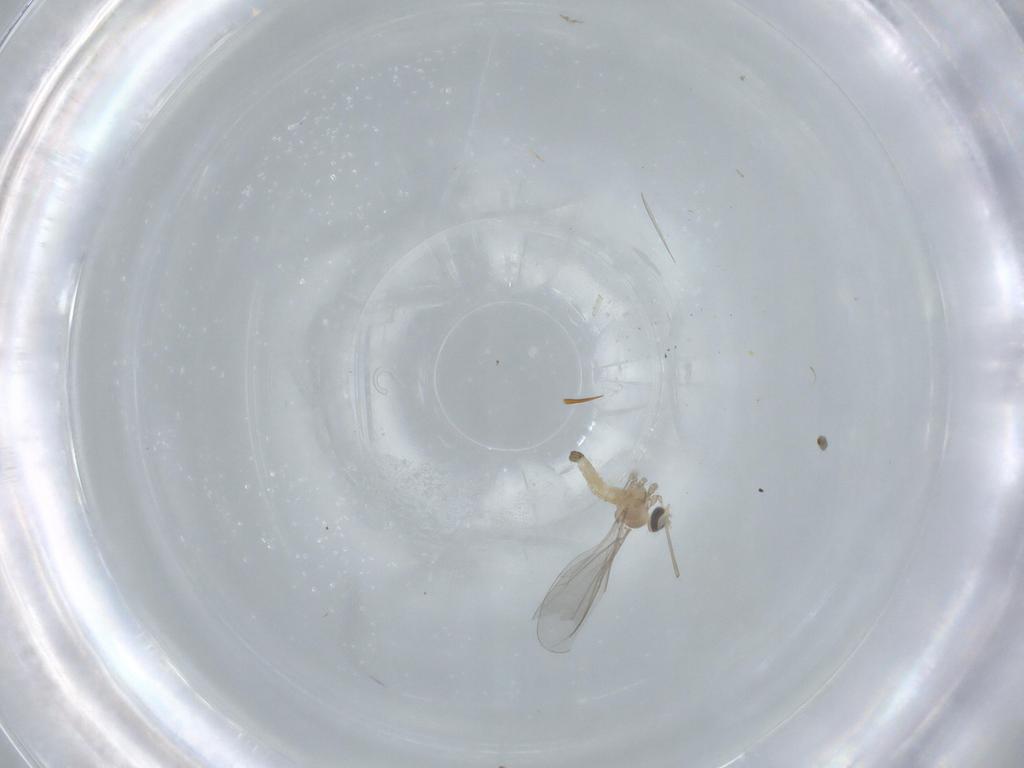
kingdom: Animalia
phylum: Arthropoda
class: Insecta
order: Diptera
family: Cecidomyiidae
